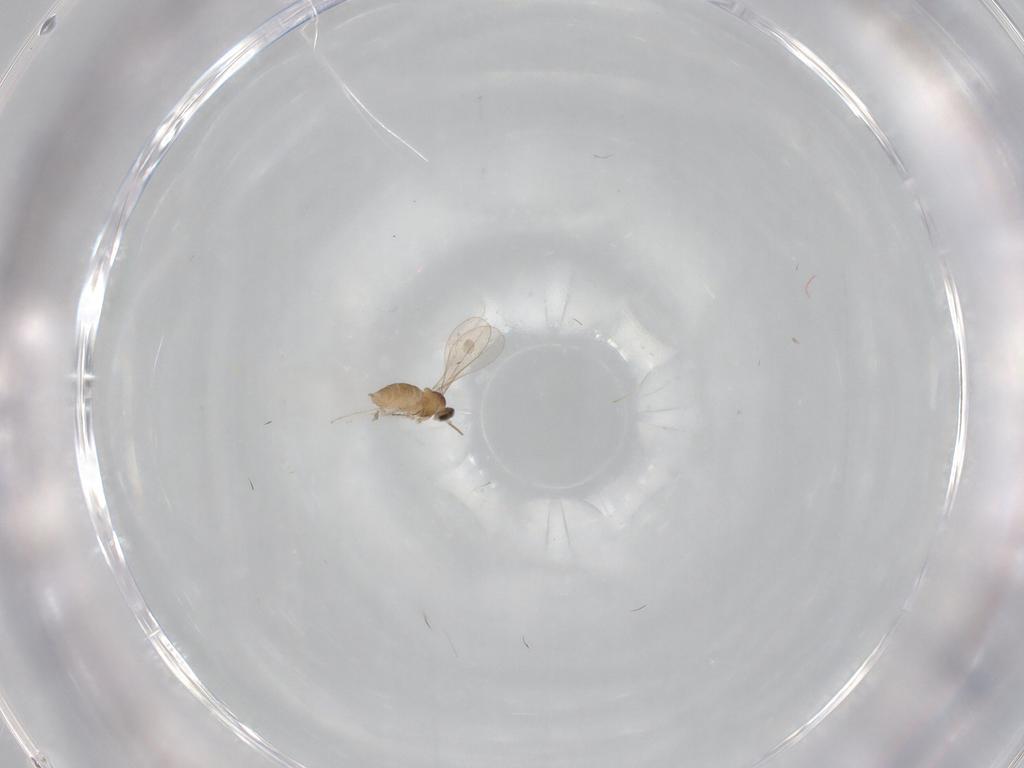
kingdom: Animalia
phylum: Arthropoda
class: Insecta
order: Diptera
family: Cecidomyiidae
